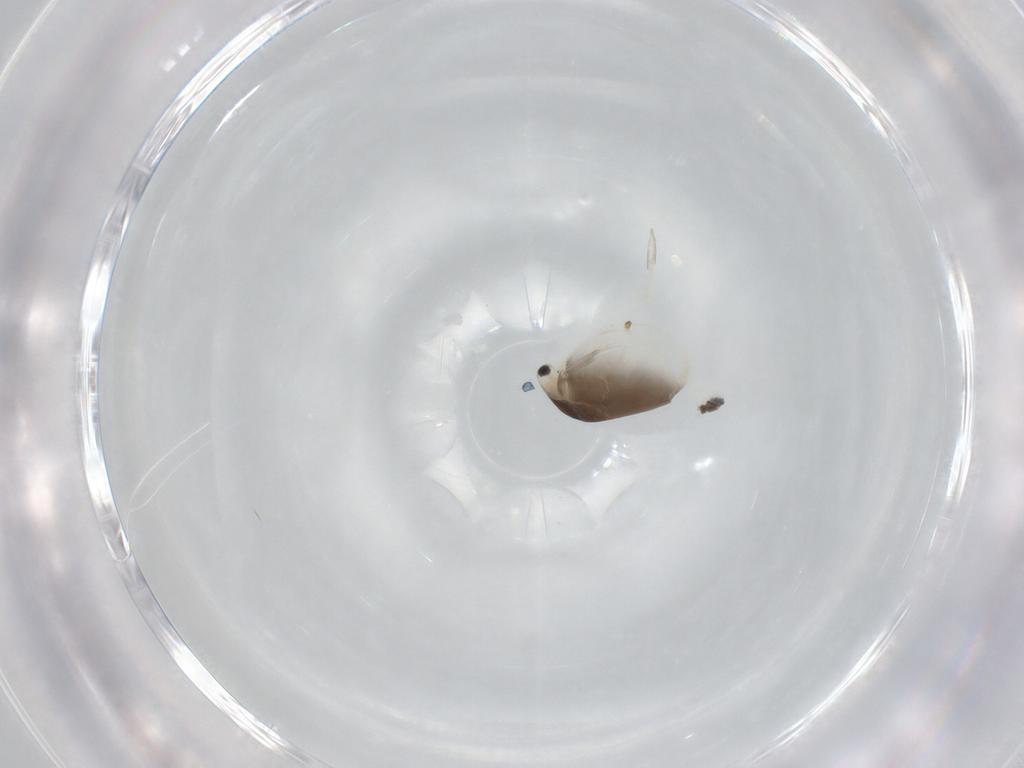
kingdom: Animalia
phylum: Arthropoda
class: Branchiopoda
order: Diplostraca
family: Daphniidae
